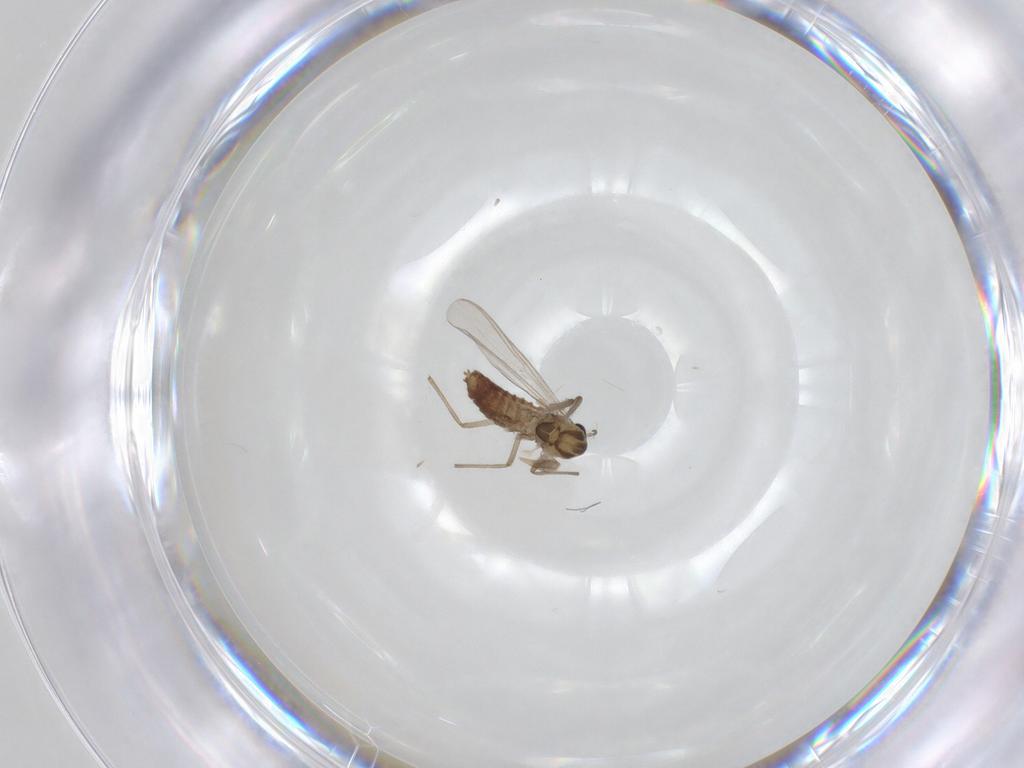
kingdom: Animalia
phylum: Arthropoda
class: Insecta
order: Diptera
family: Chironomidae
